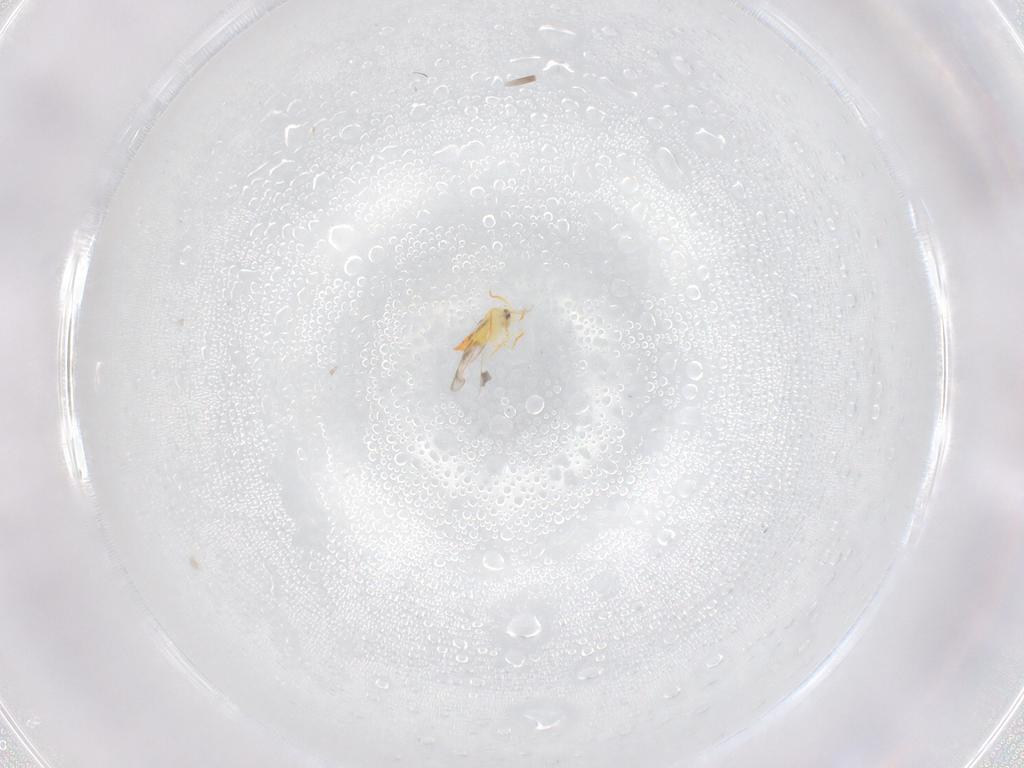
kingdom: Animalia
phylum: Arthropoda
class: Insecta
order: Hemiptera
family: Aleyrodidae
